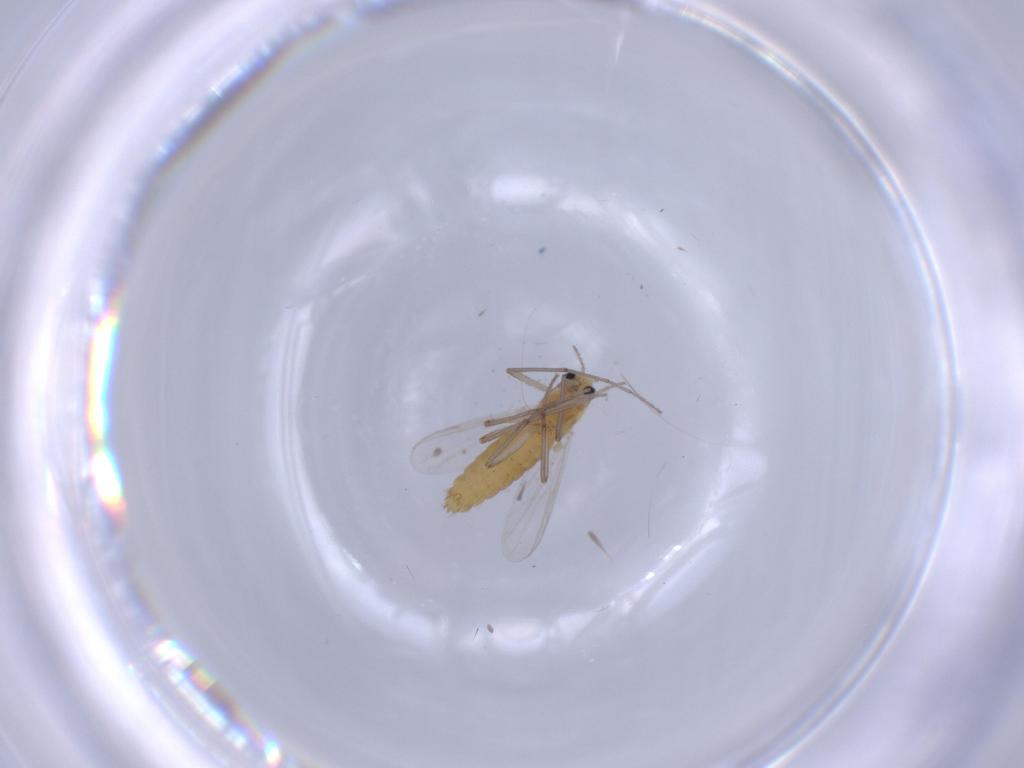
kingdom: Animalia
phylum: Arthropoda
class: Insecta
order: Diptera
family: Chironomidae
